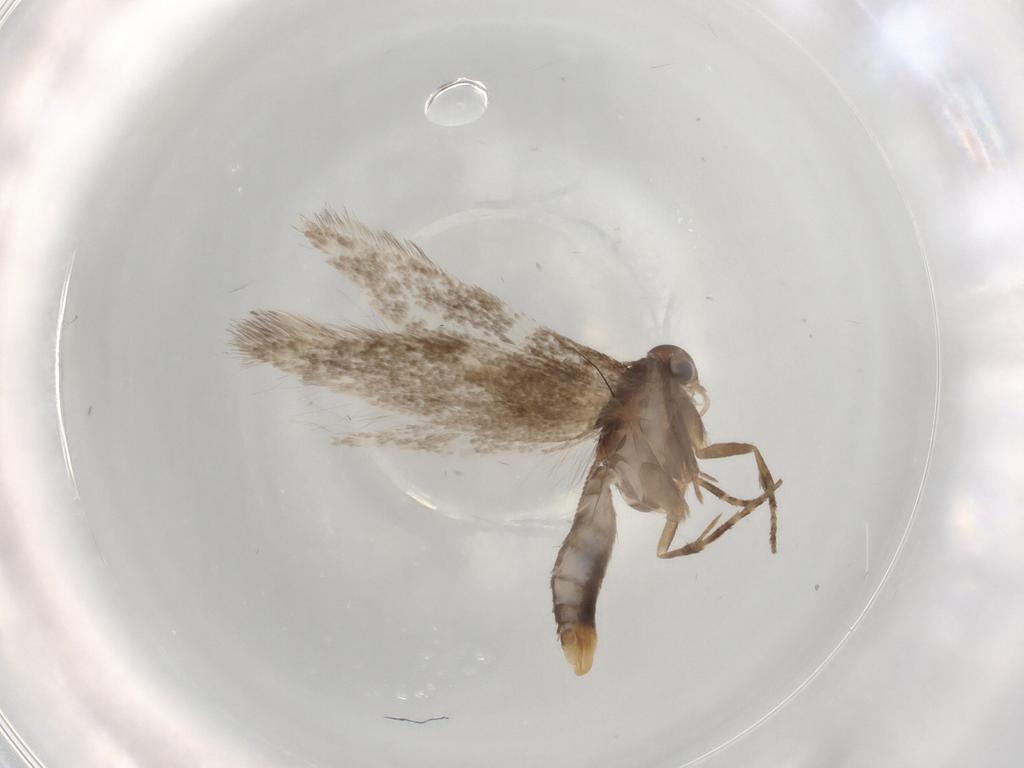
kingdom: Animalia
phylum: Arthropoda
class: Insecta
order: Lepidoptera
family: Elachistidae
